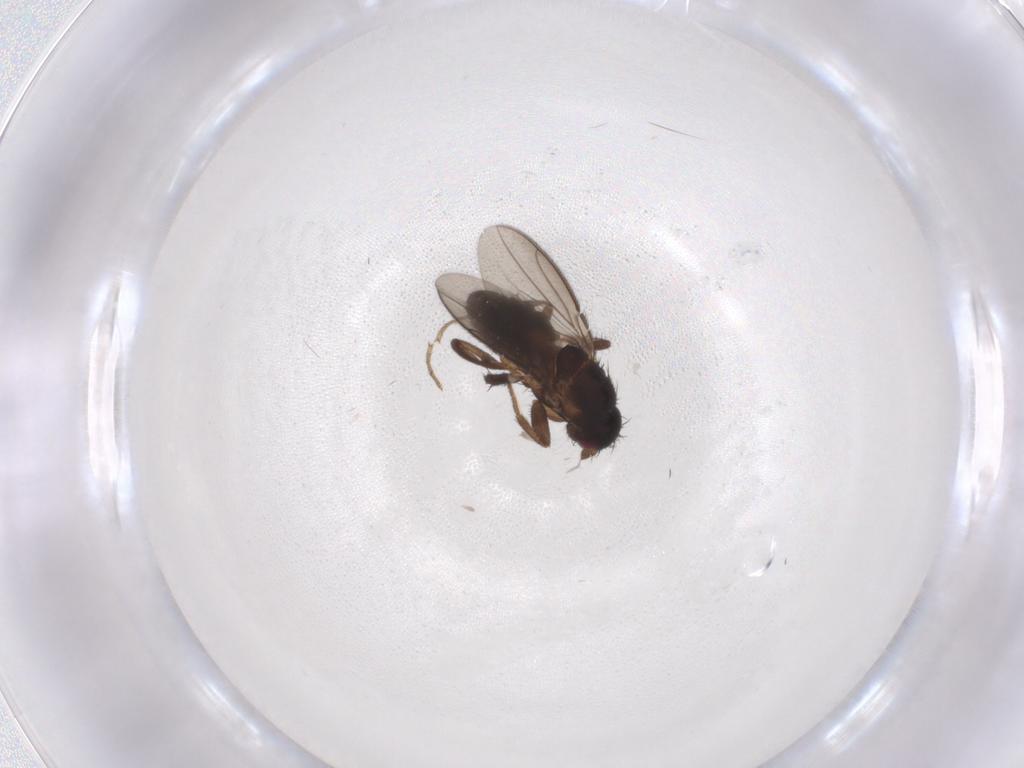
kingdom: Animalia
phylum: Arthropoda
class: Insecta
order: Diptera
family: Sphaeroceridae
